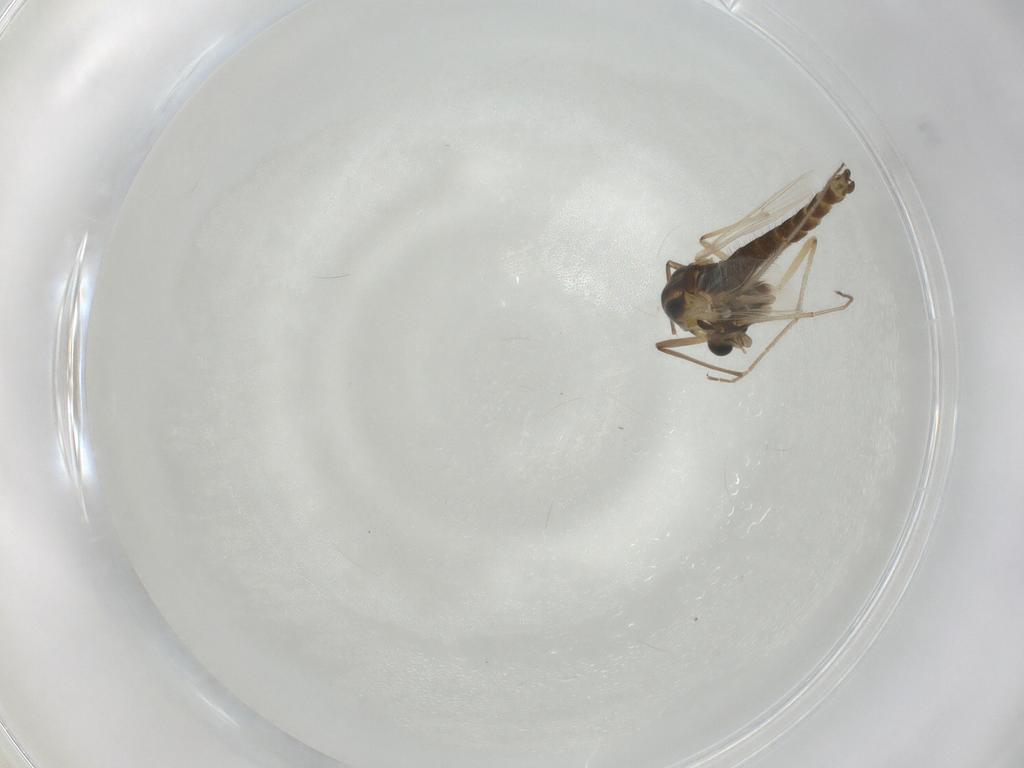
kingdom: Animalia
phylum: Arthropoda
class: Insecta
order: Diptera
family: Chironomidae
